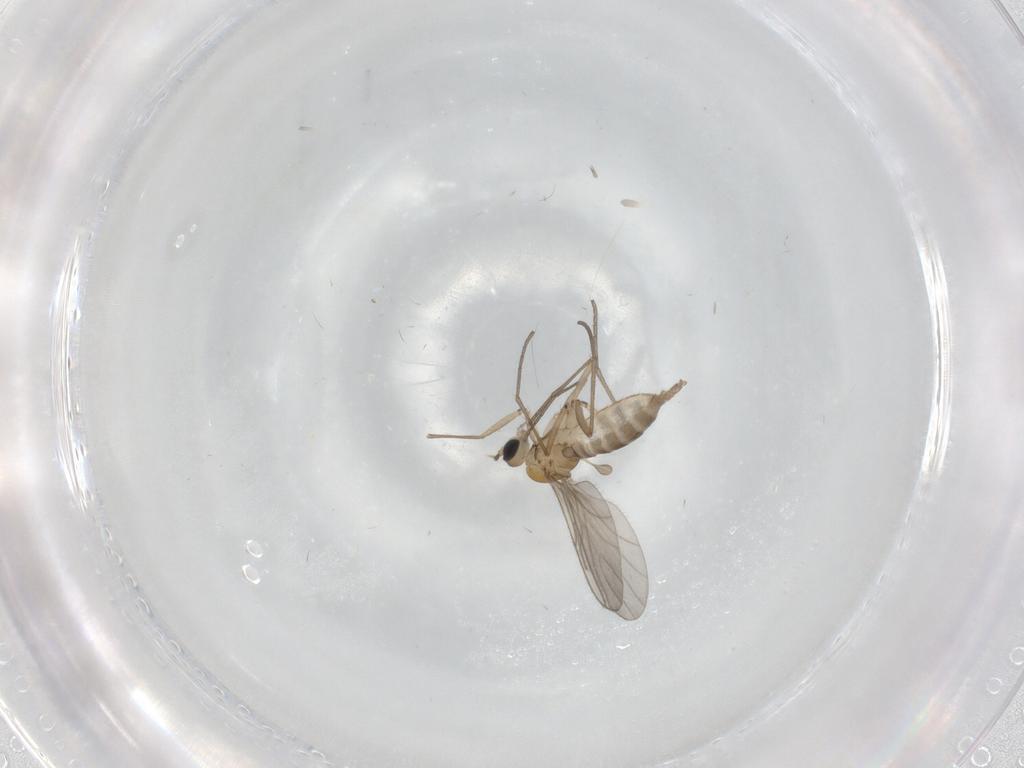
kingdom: Animalia
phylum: Arthropoda
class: Insecta
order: Diptera
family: Sciaridae
